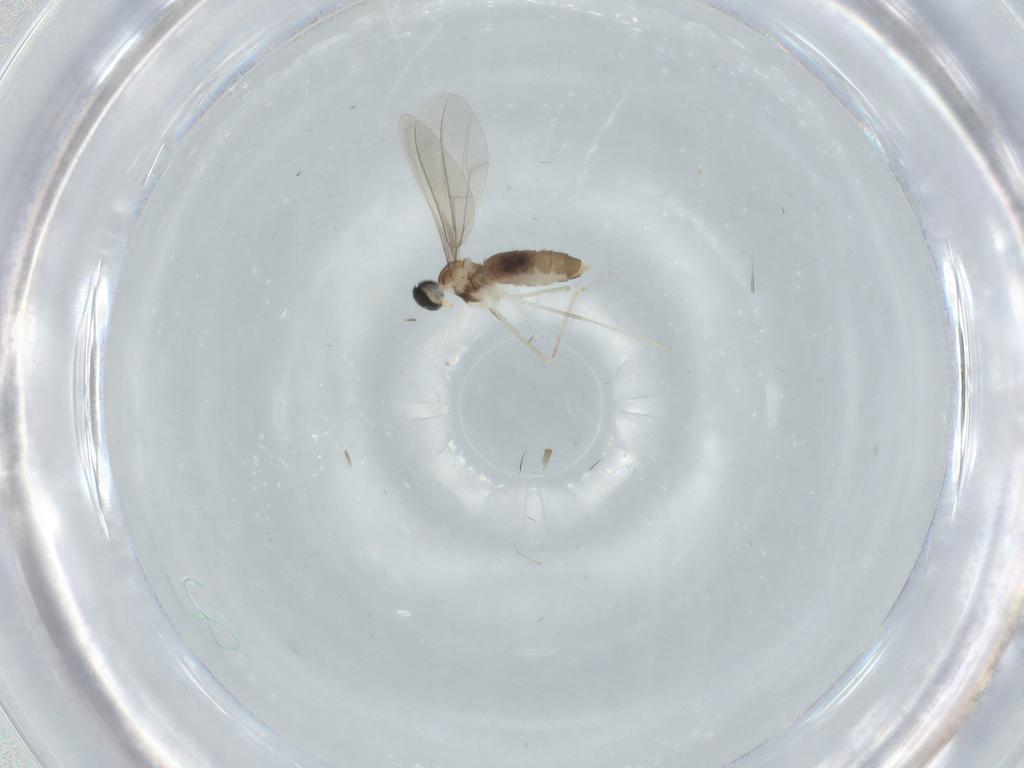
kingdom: Animalia
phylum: Arthropoda
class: Insecta
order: Diptera
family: Cecidomyiidae
